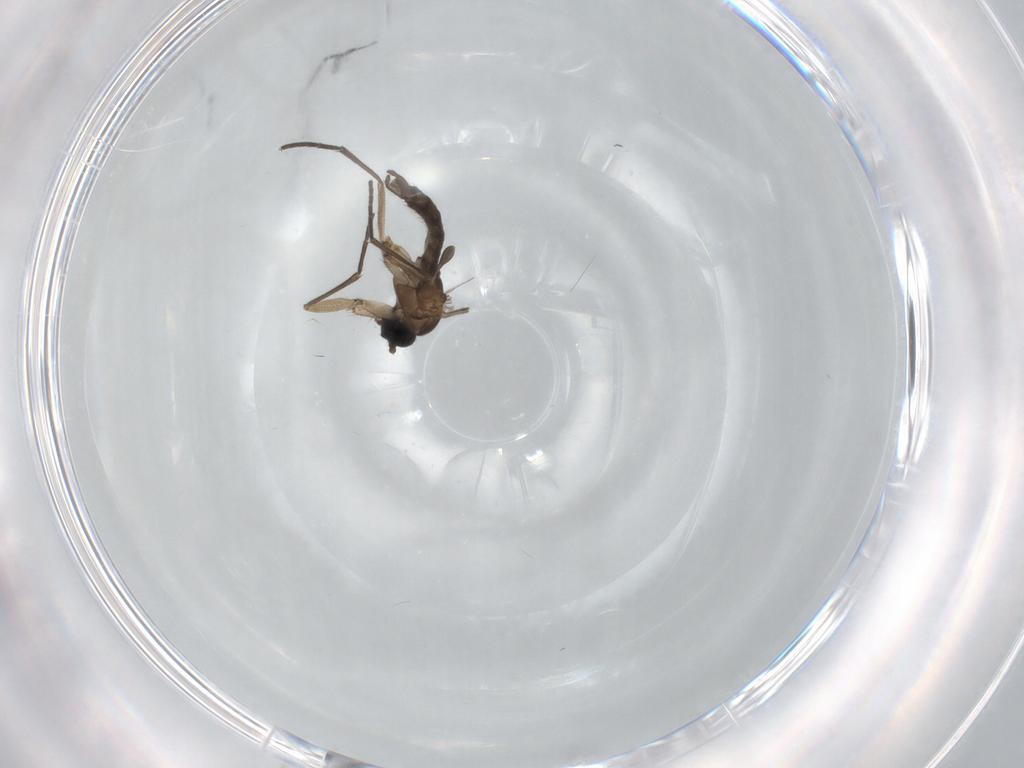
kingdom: Animalia
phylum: Arthropoda
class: Insecta
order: Diptera
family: Sciaridae
